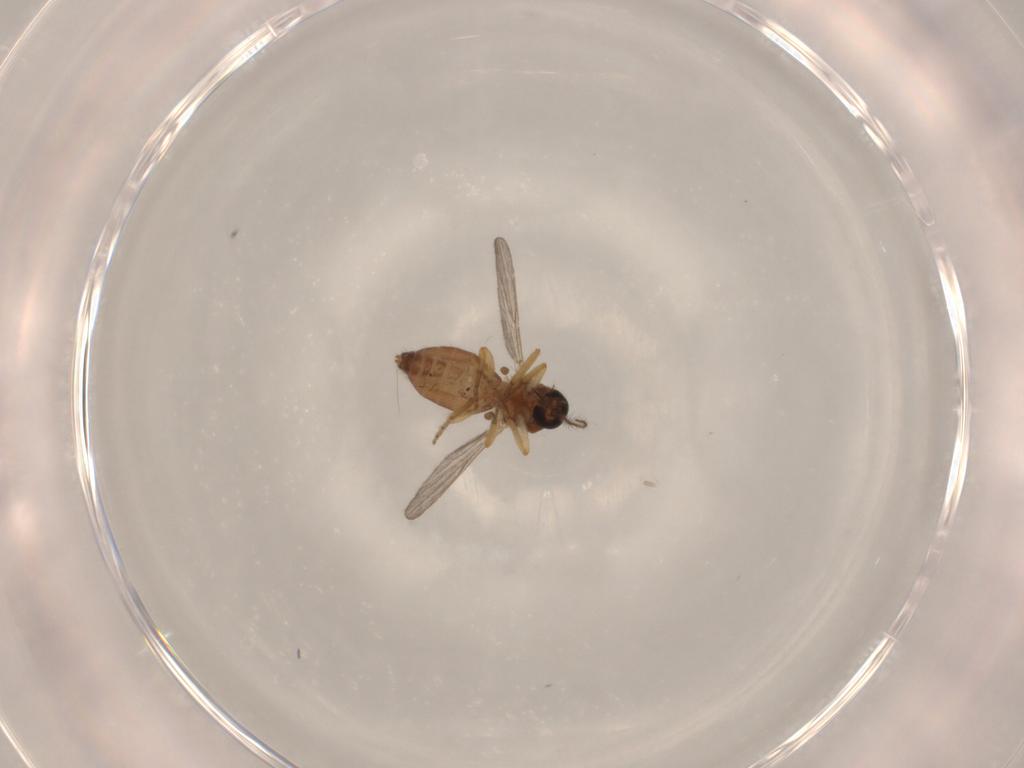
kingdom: Animalia
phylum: Arthropoda
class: Insecta
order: Diptera
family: Ceratopogonidae
